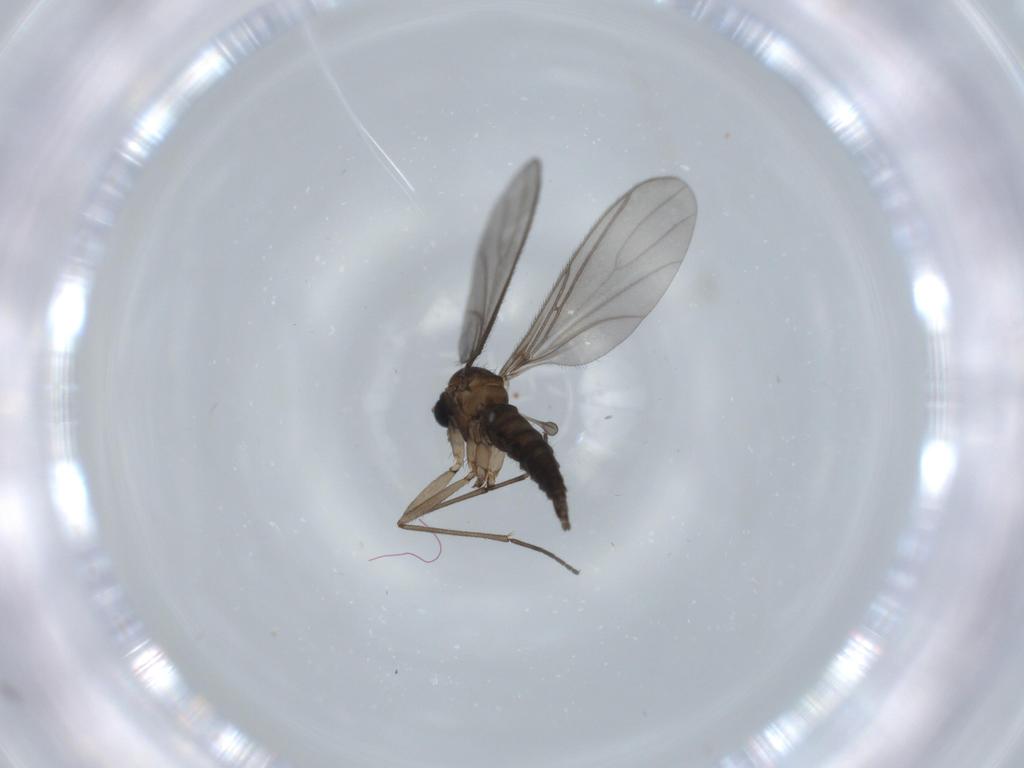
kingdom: Animalia
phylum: Arthropoda
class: Insecta
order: Diptera
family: Sciaridae
